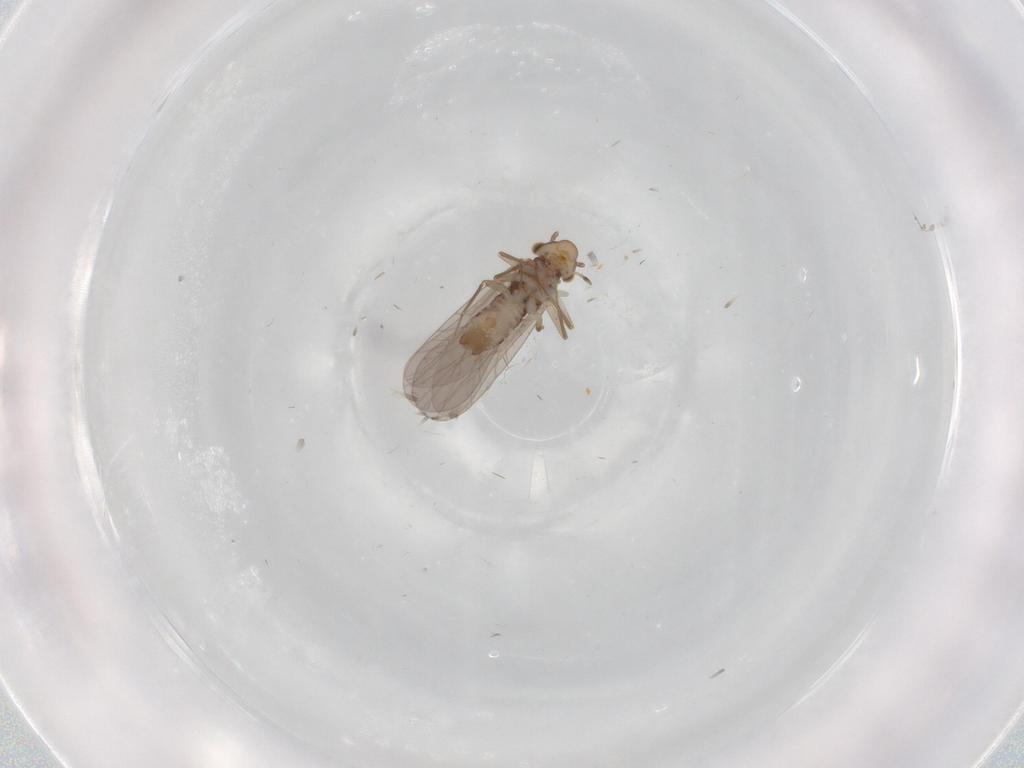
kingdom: Animalia
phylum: Arthropoda
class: Insecta
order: Psocodea
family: Lepidopsocidae
